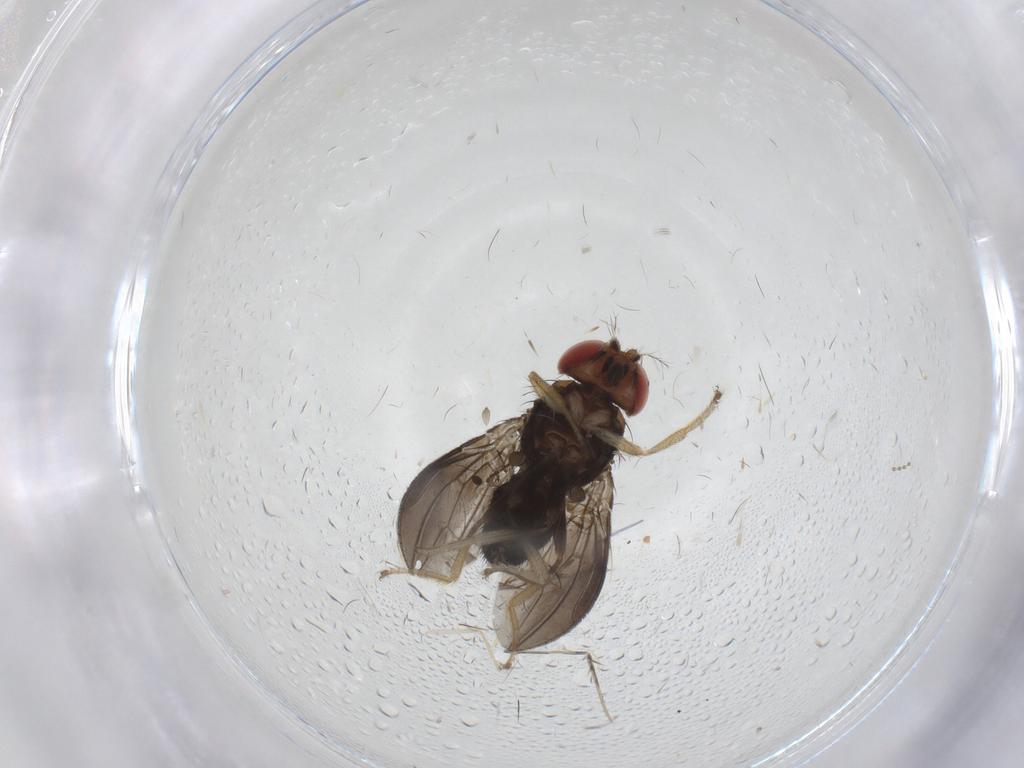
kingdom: Animalia
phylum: Arthropoda
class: Insecta
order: Diptera
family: Sciaridae
